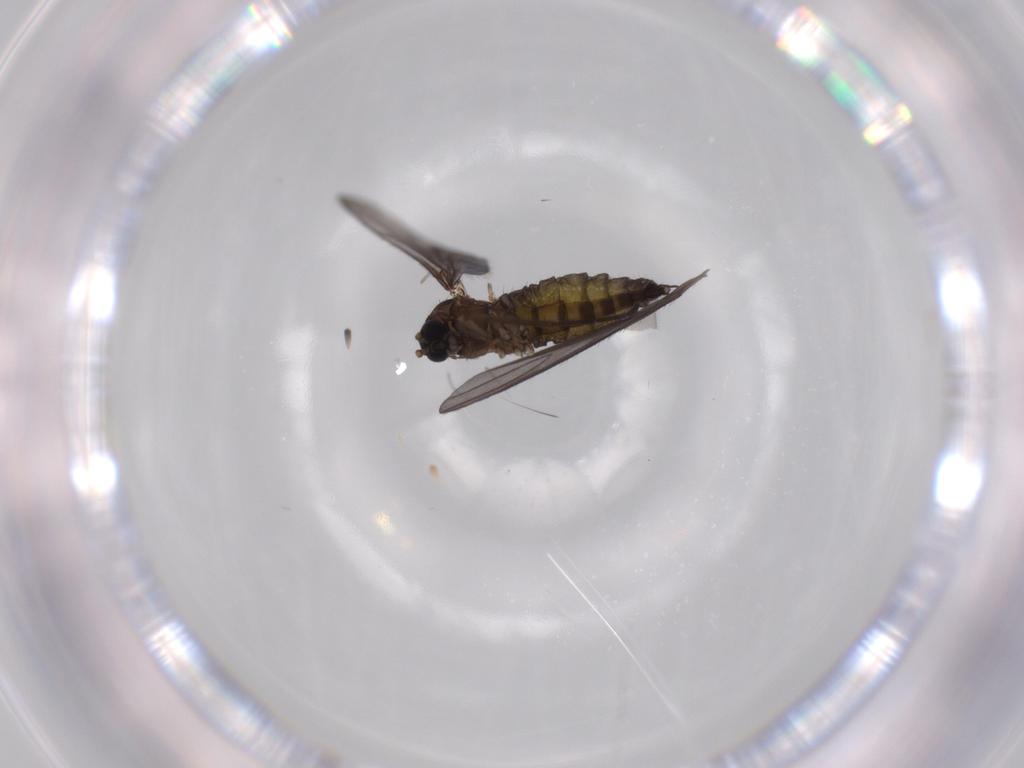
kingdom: Animalia
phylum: Arthropoda
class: Insecta
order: Diptera
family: Sciaridae
